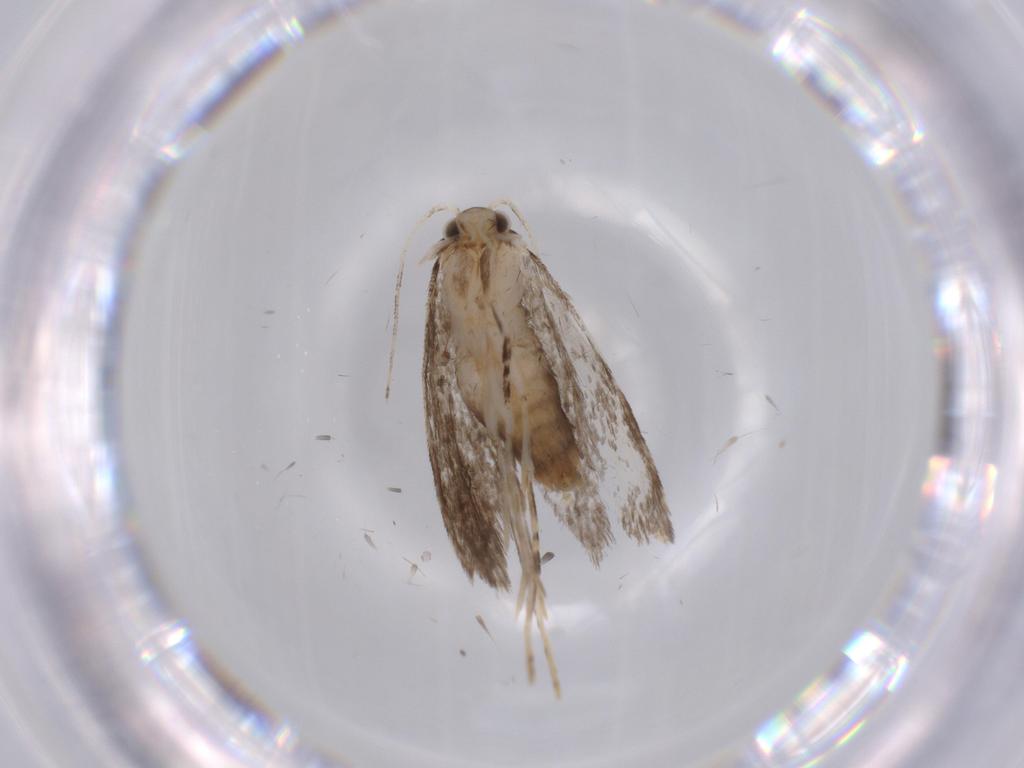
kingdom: Animalia
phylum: Arthropoda
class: Insecta
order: Lepidoptera
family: Tineidae
